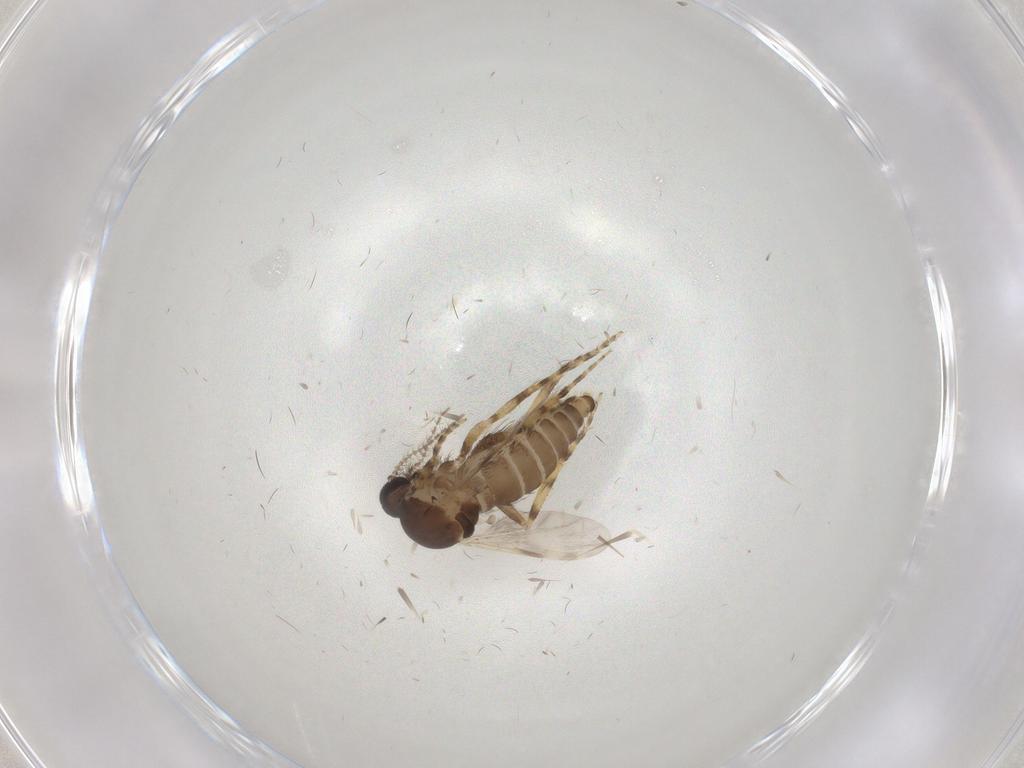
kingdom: Animalia
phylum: Arthropoda
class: Insecta
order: Diptera
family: Ceratopogonidae
